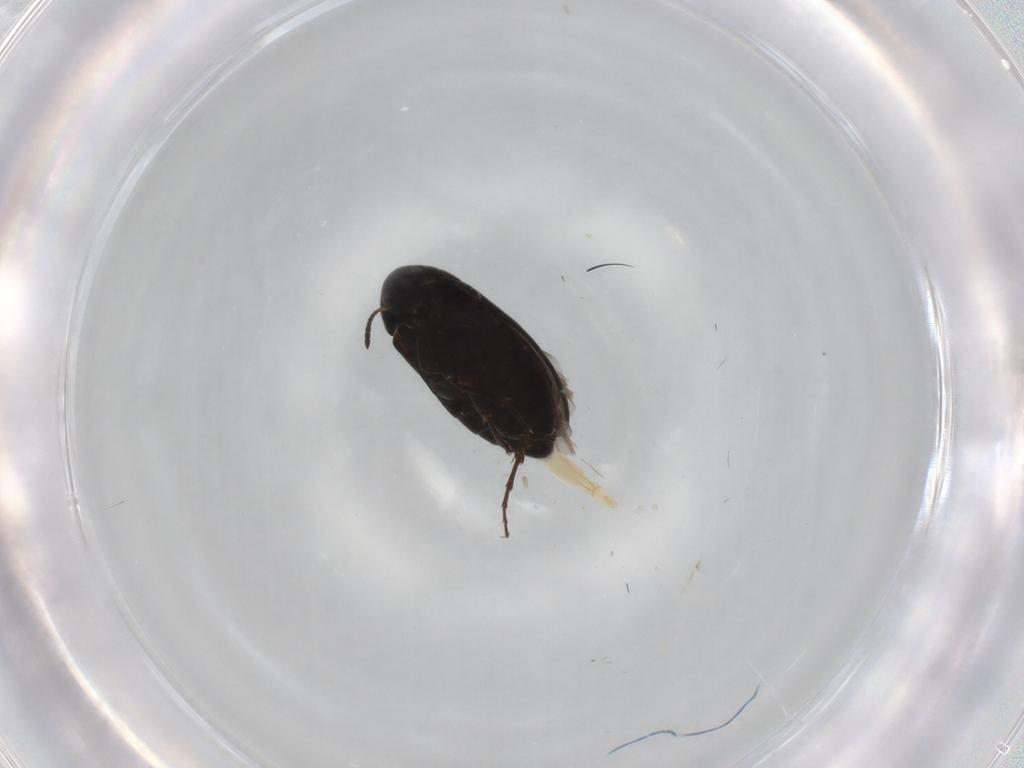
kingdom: Animalia
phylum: Arthropoda
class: Insecta
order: Coleoptera
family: Scraptiidae
